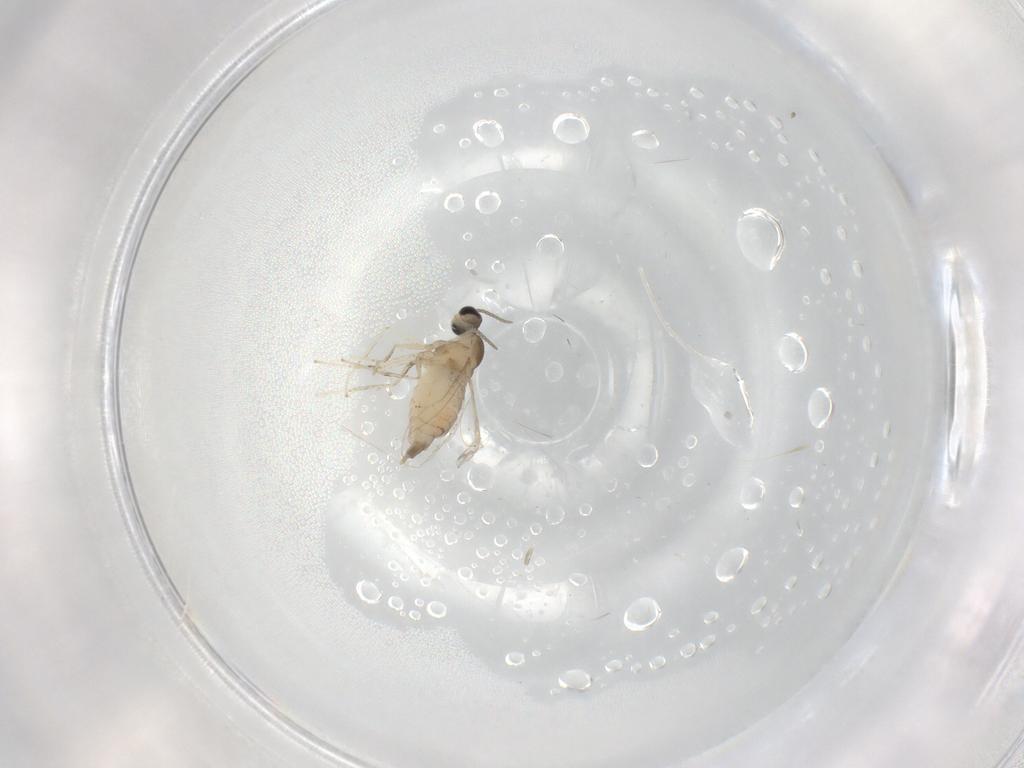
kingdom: Animalia
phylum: Arthropoda
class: Insecta
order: Diptera
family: Cecidomyiidae
